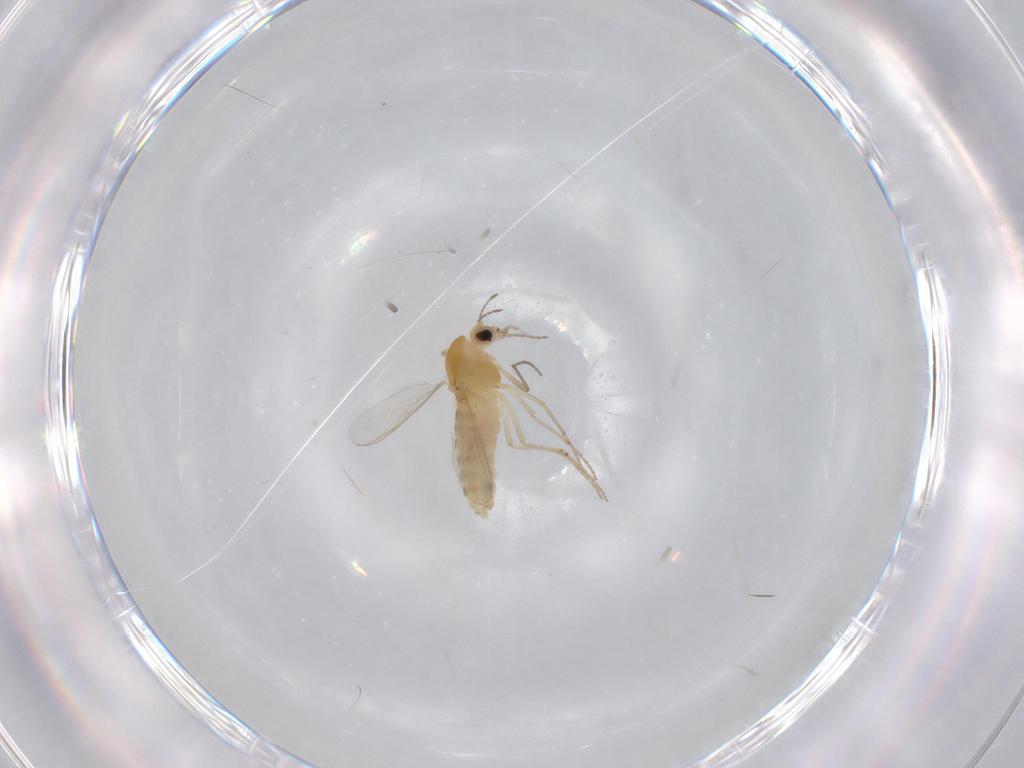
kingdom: Animalia
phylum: Arthropoda
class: Insecta
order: Diptera
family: Chironomidae
